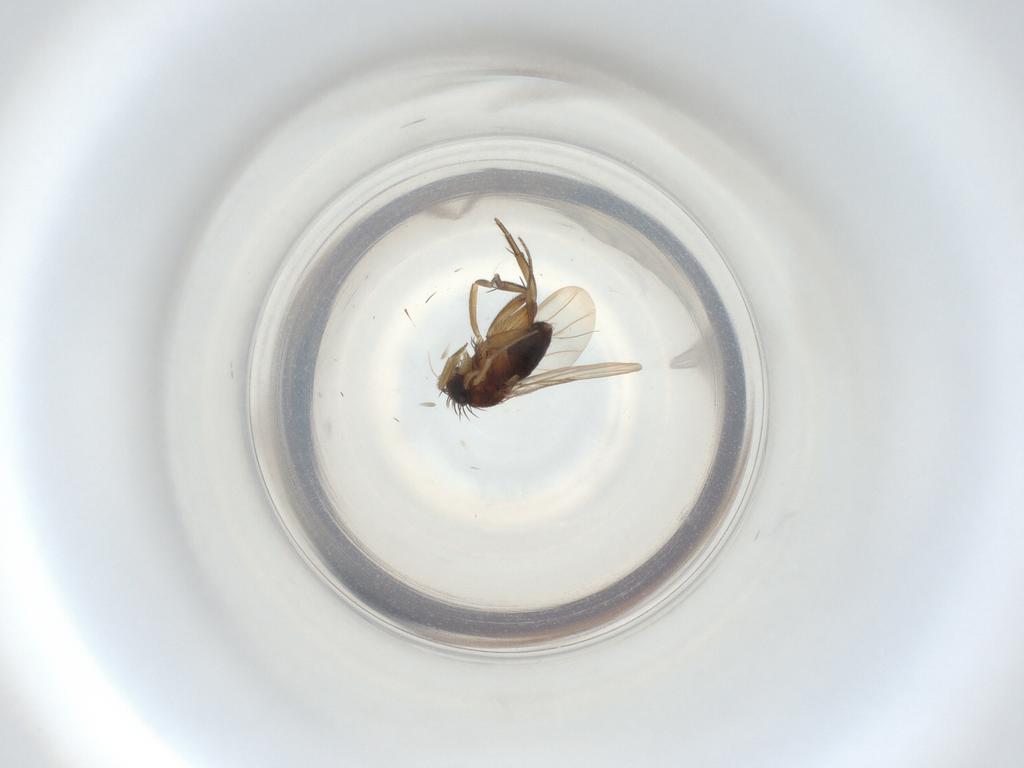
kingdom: Animalia
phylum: Arthropoda
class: Insecta
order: Diptera
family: Phoridae
